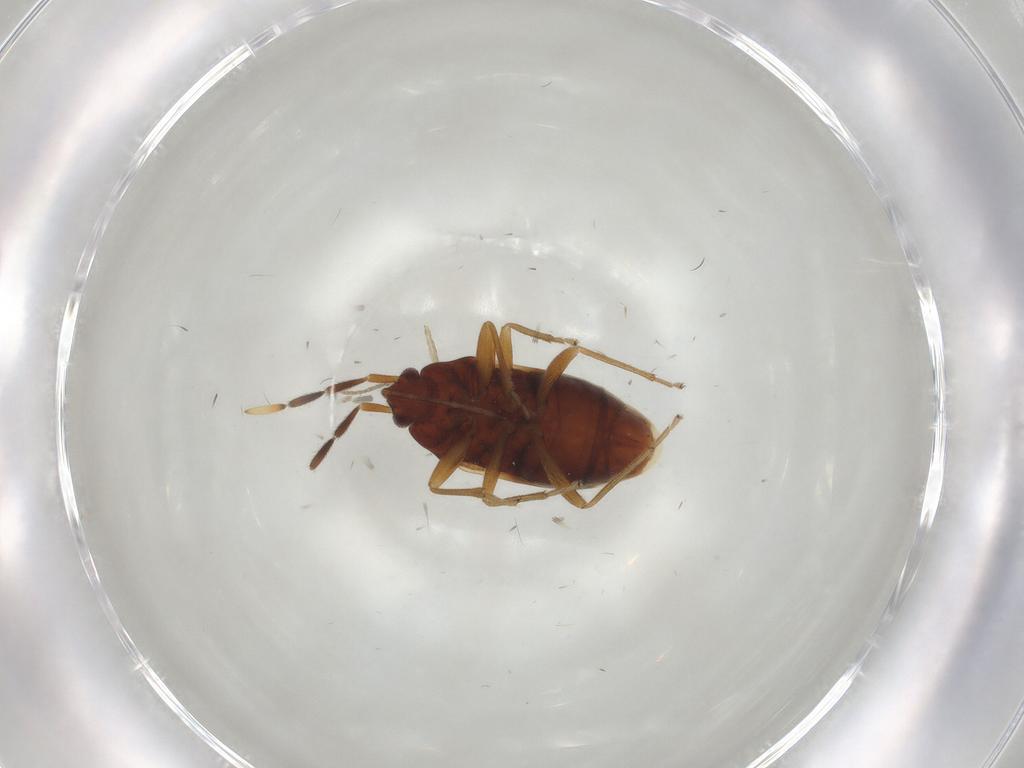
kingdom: Animalia
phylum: Arthropoda
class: Insecta
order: Hemiptera
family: Rhyparochromidae
